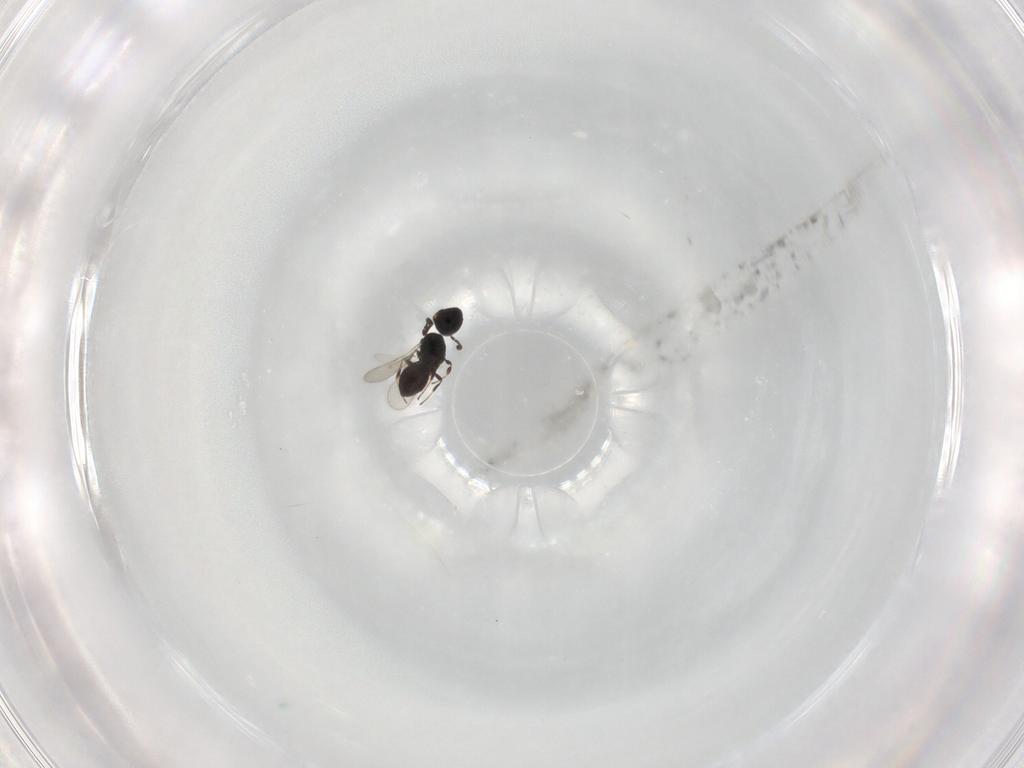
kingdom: Animalia
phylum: Arthropoda
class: Insecta
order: Hymenoptera
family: Scelionidae
